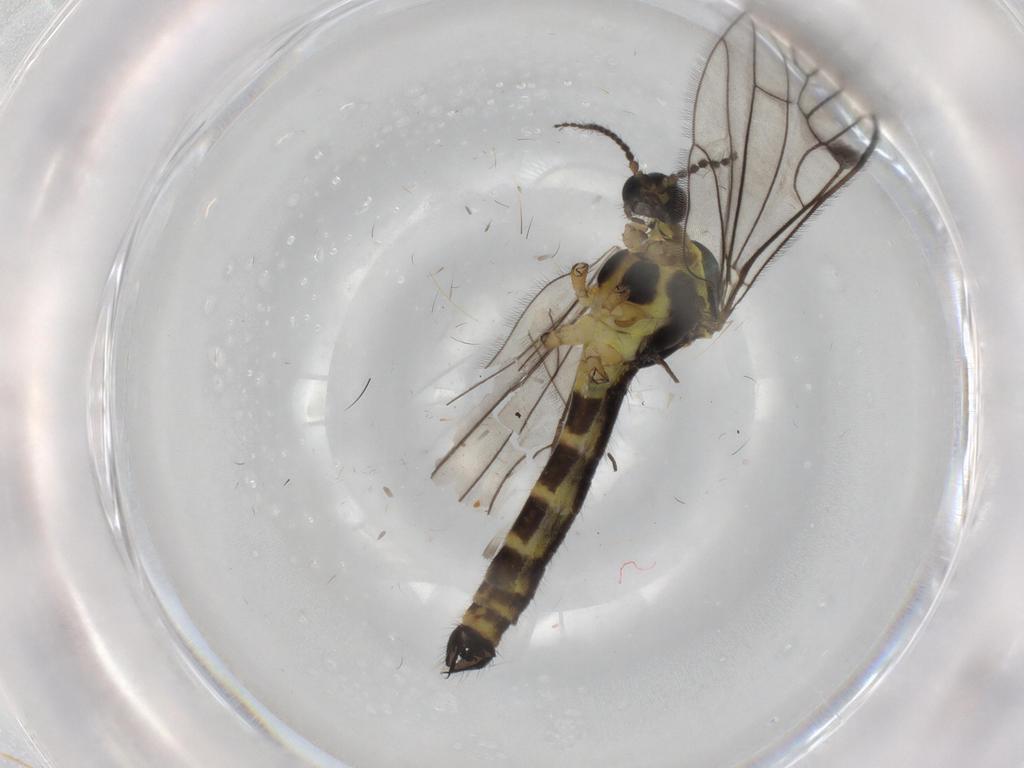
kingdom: Animalia
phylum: Arthropoda
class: Insecta
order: Diptera
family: Limoniidae
